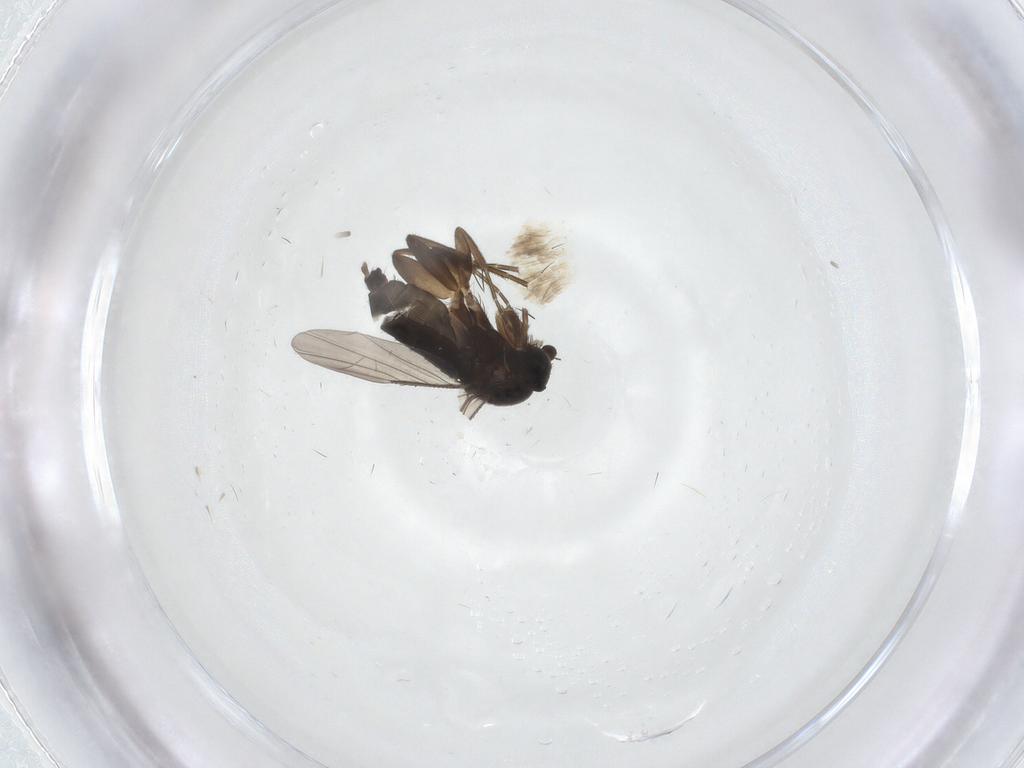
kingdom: Animalia
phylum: Arthropoda
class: Insecta
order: Diptera
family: Phoridae
